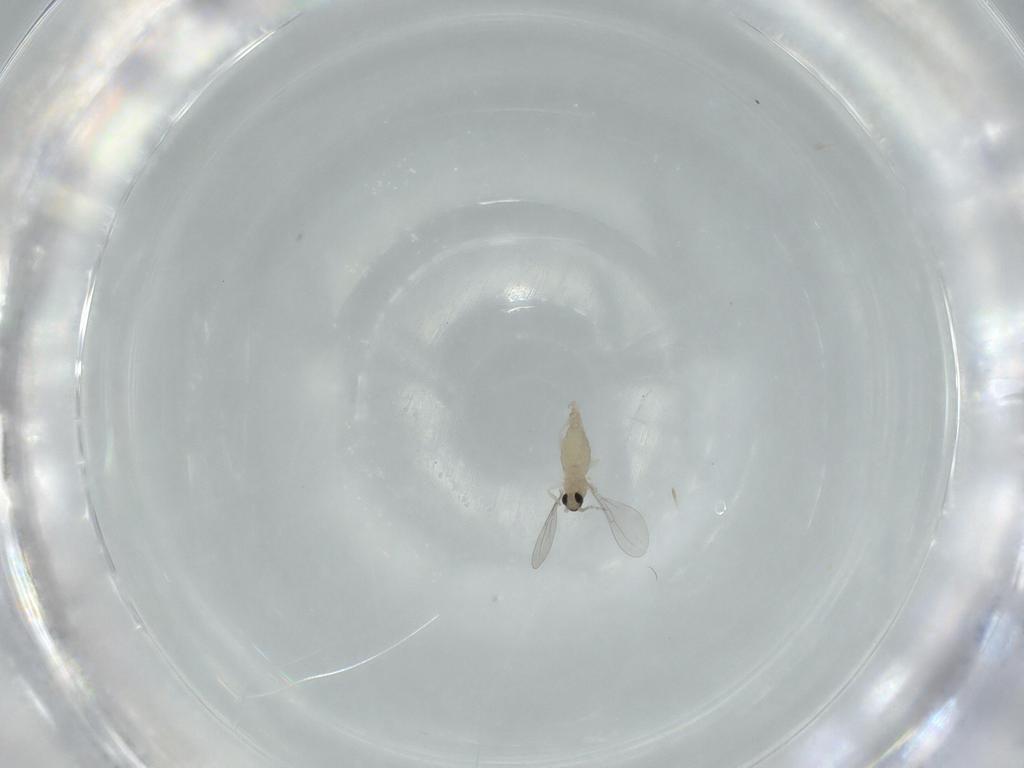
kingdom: Animalia
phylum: Arthropoda
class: Insecta
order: Diptera
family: Cecidomyiidae
